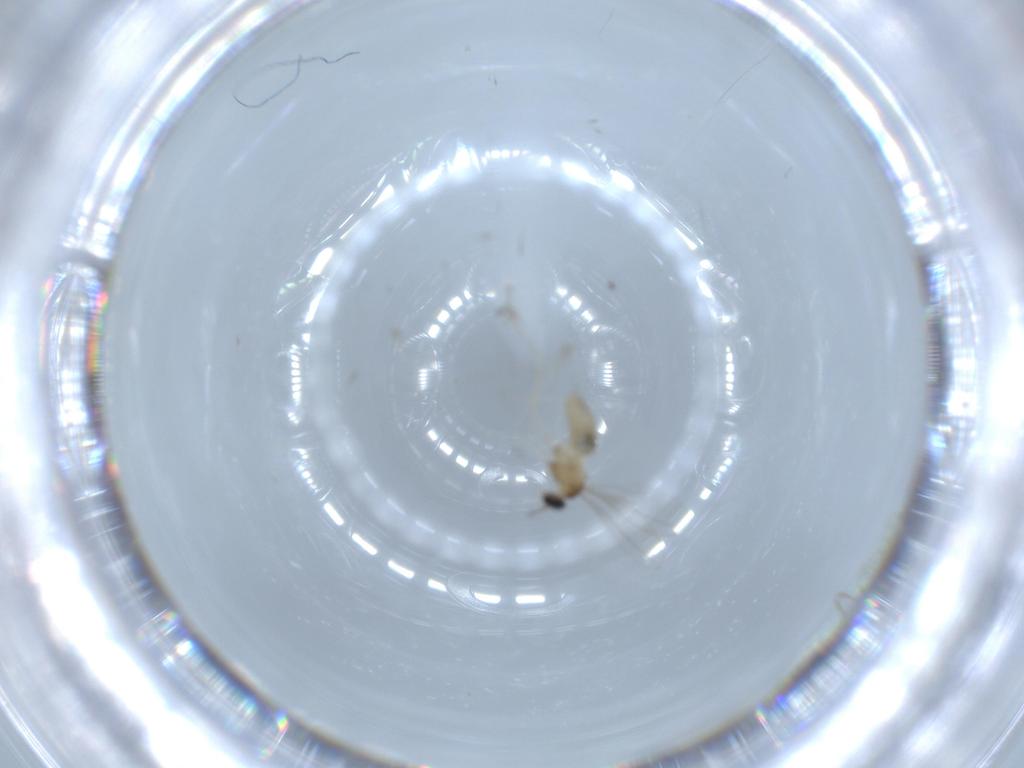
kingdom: Animalia
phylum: Arthropoda
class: Insecta
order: Diptera
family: Cecidomyiidae
